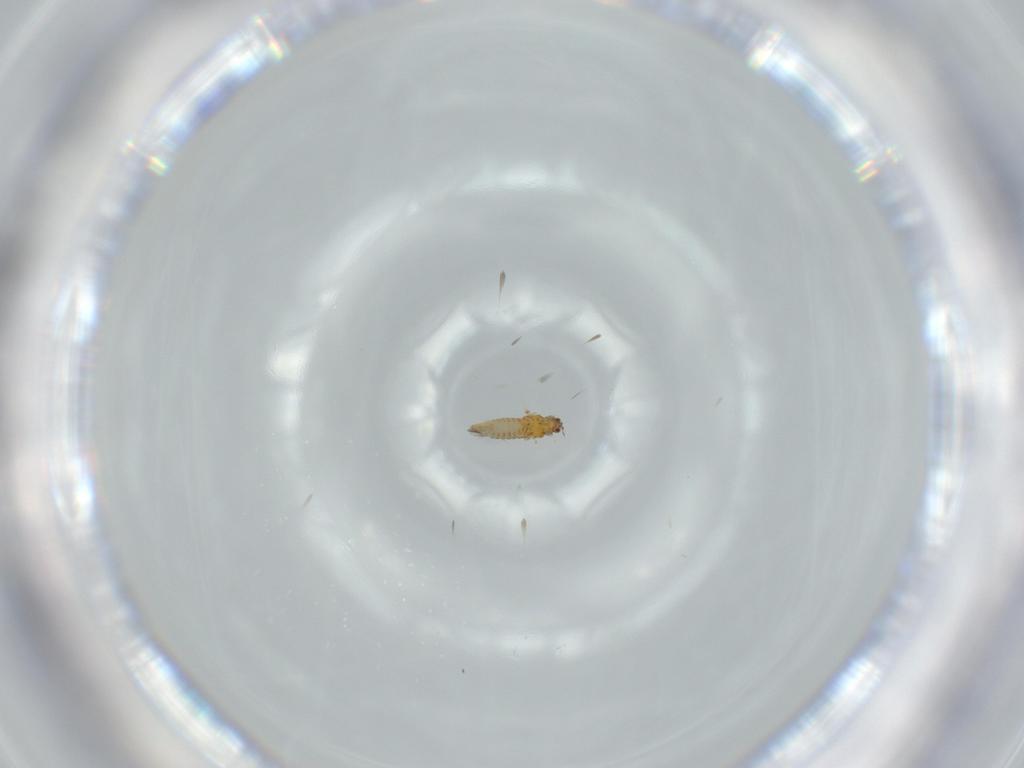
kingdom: Animalia
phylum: Arthropoda
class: Insecta
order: Thysanoptera
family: Thripidae
